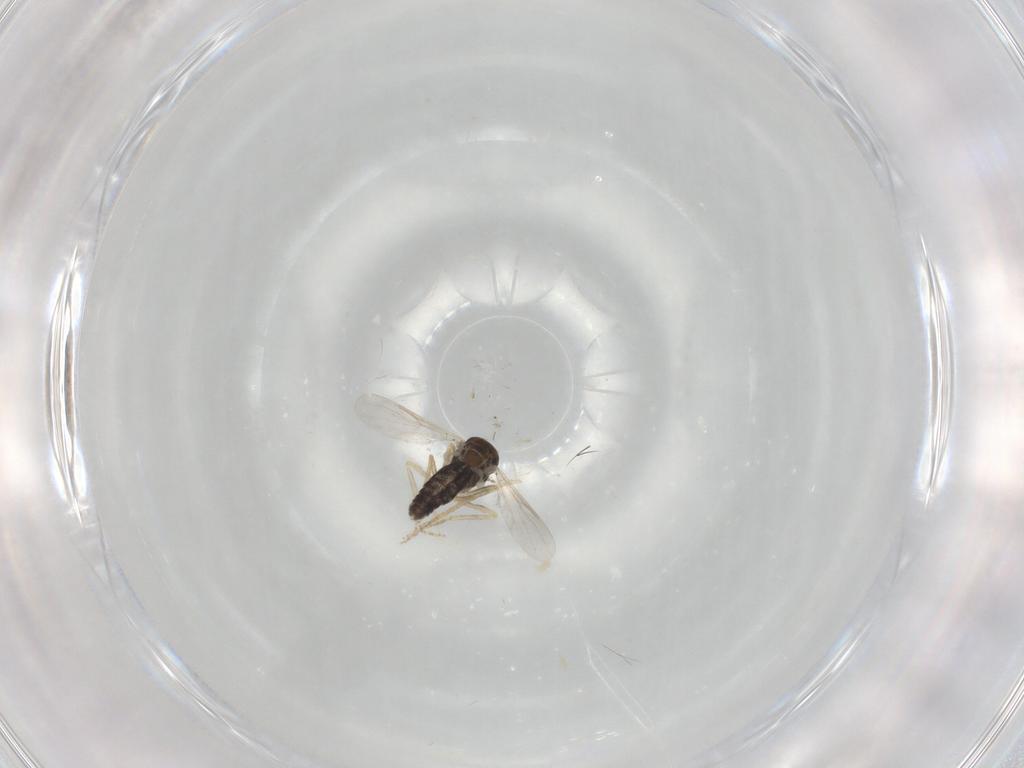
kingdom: Animalia
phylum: Arthropoda
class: Insecta
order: Diptera
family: Ceratopogonidae
